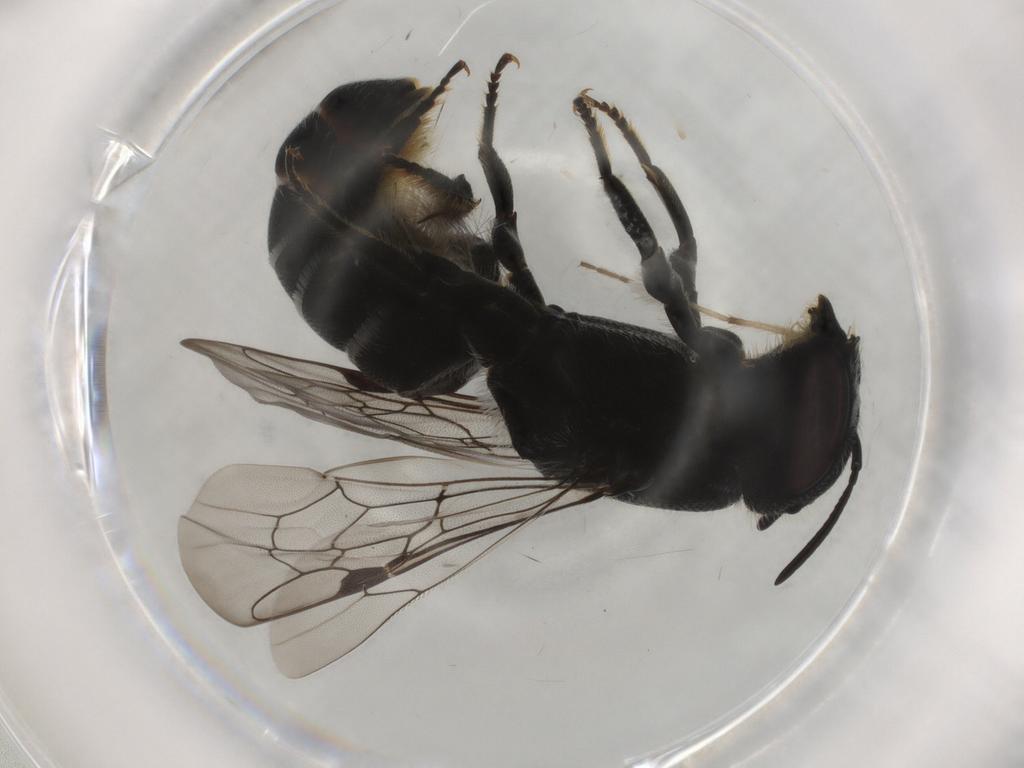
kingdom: Animalia
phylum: Arthropoda
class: Insecta
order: Hymenoptera
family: Megachilidae
